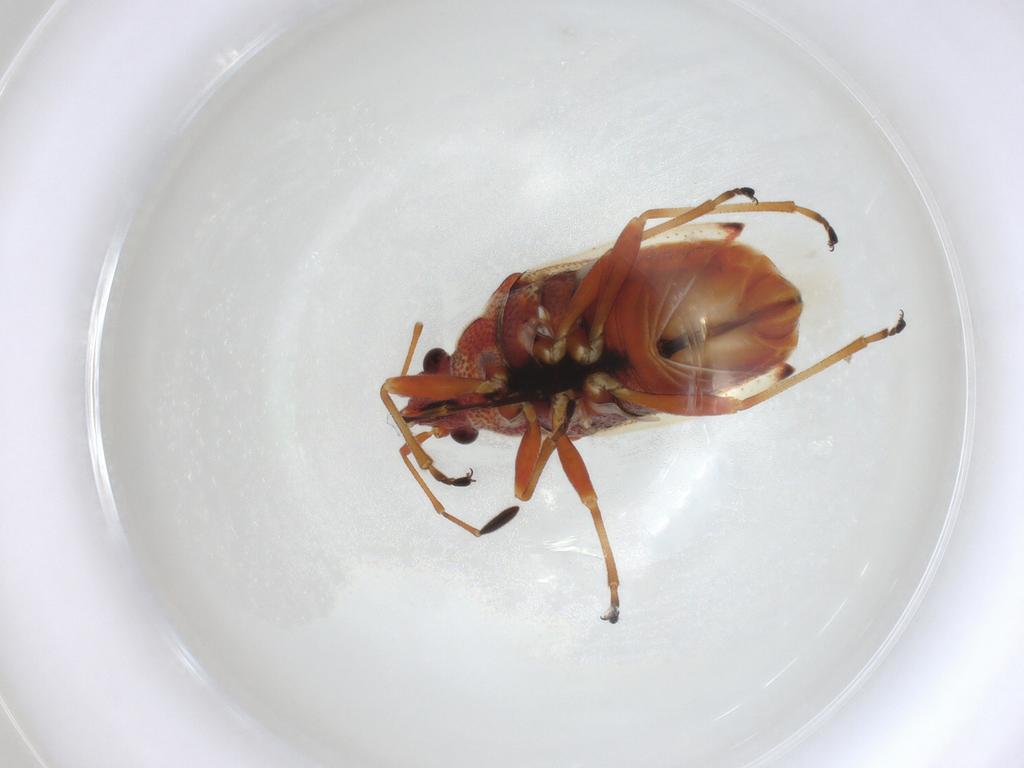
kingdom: Animalia
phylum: Arthropoda
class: Insecta
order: Hemiptera
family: Lygaeidae
